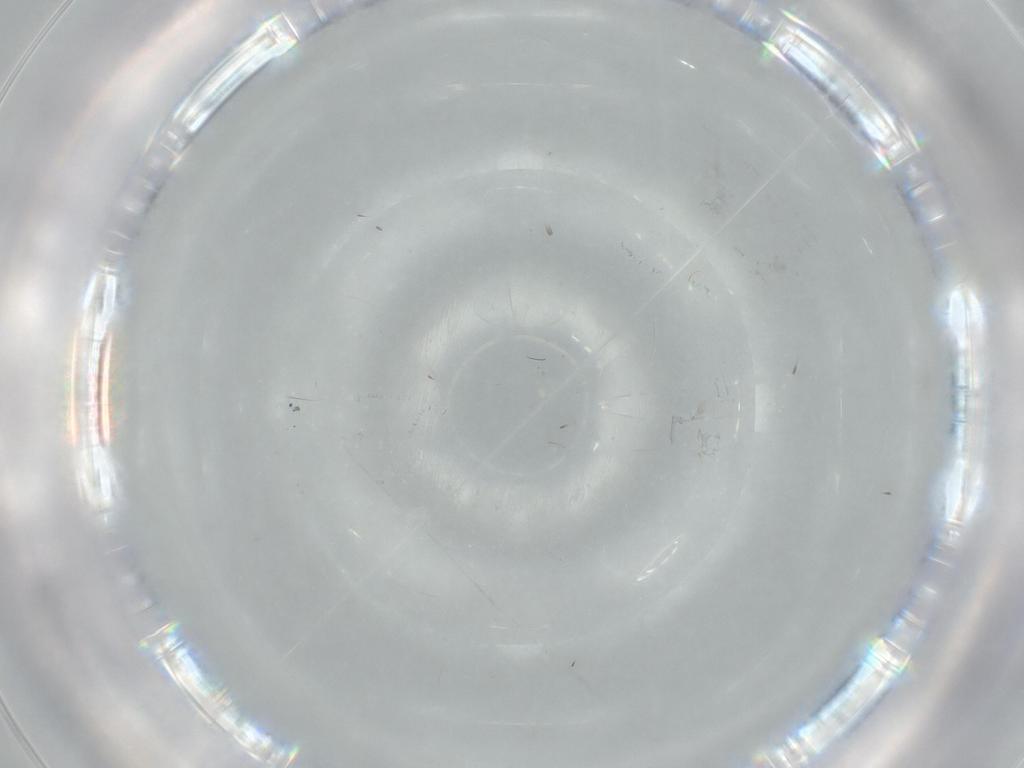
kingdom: Animalia
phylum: Arthropoda
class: Arachnida
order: Trombidiformes
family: Eupodidae
